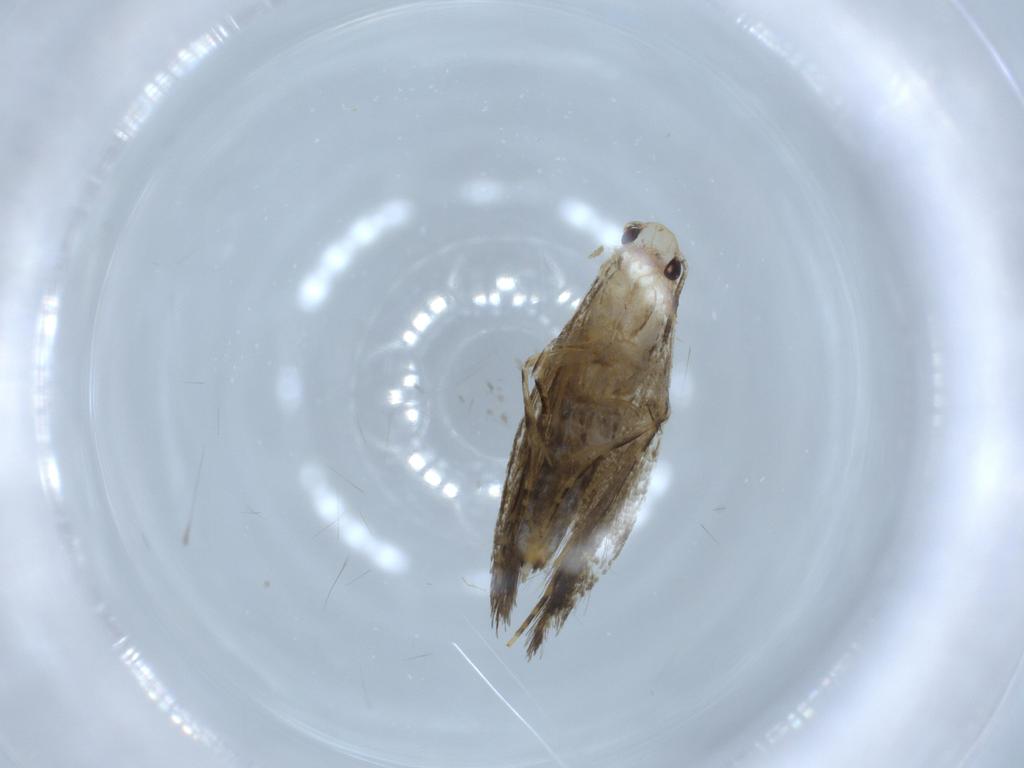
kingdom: Animalia
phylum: Arthropoda
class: Insecta
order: Lepidoptera
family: Tineidae
